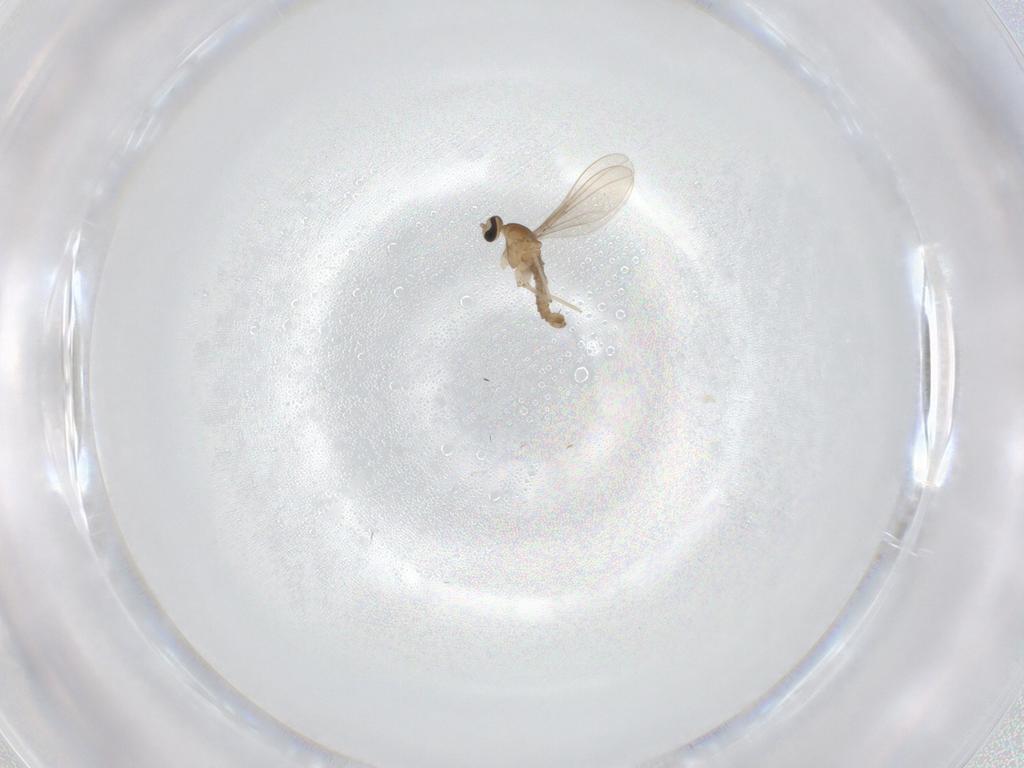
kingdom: Animalia
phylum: Arthropoda
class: Insecta
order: Diptera
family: Cecidomyiidae
